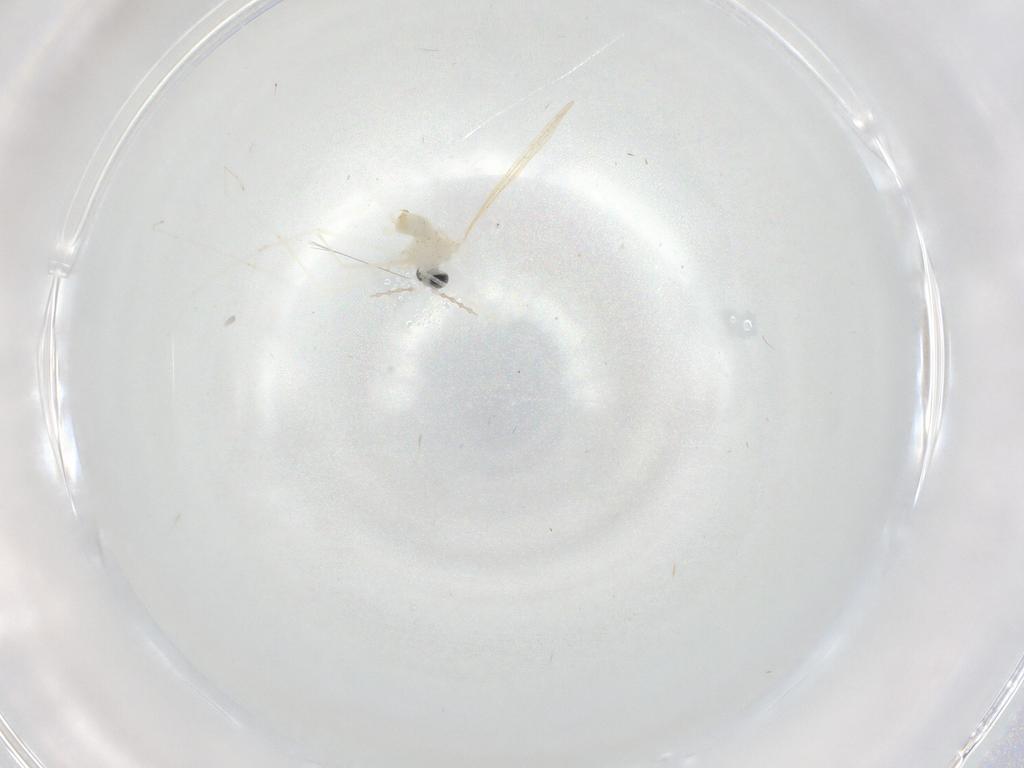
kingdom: Animalia
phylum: Arthropoda
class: Insecta
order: Diptera
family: Cecidomyiidae
